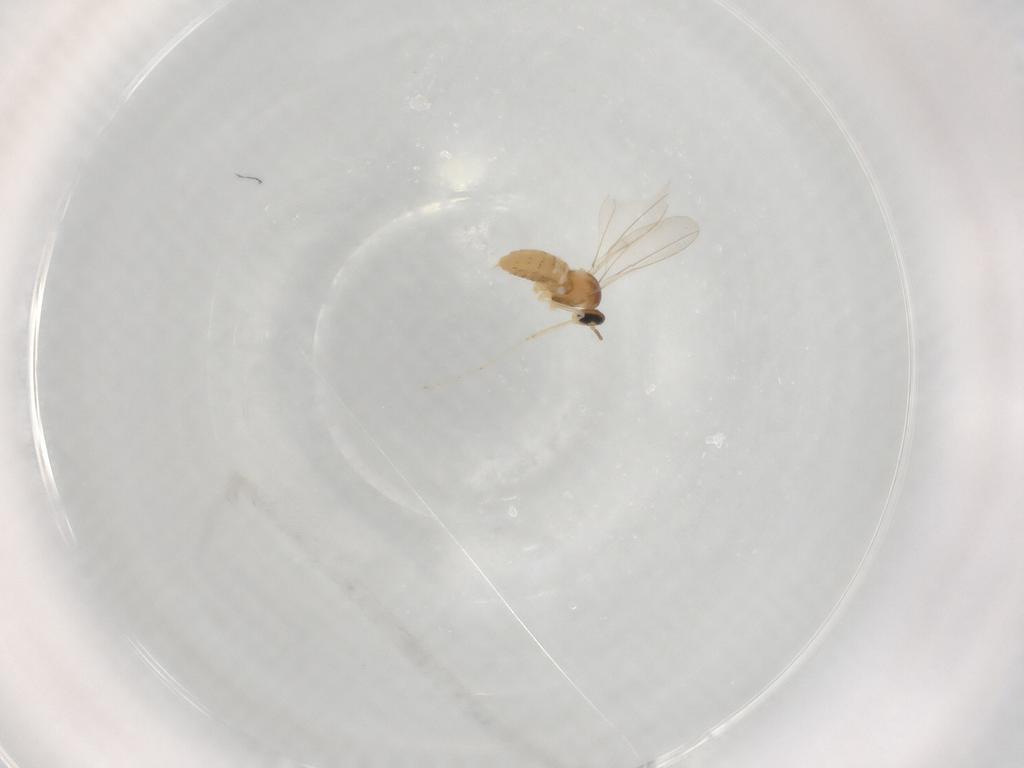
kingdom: Animalia
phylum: Arthropoda
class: Insecta
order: Diptera
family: Cecidomyiidae
